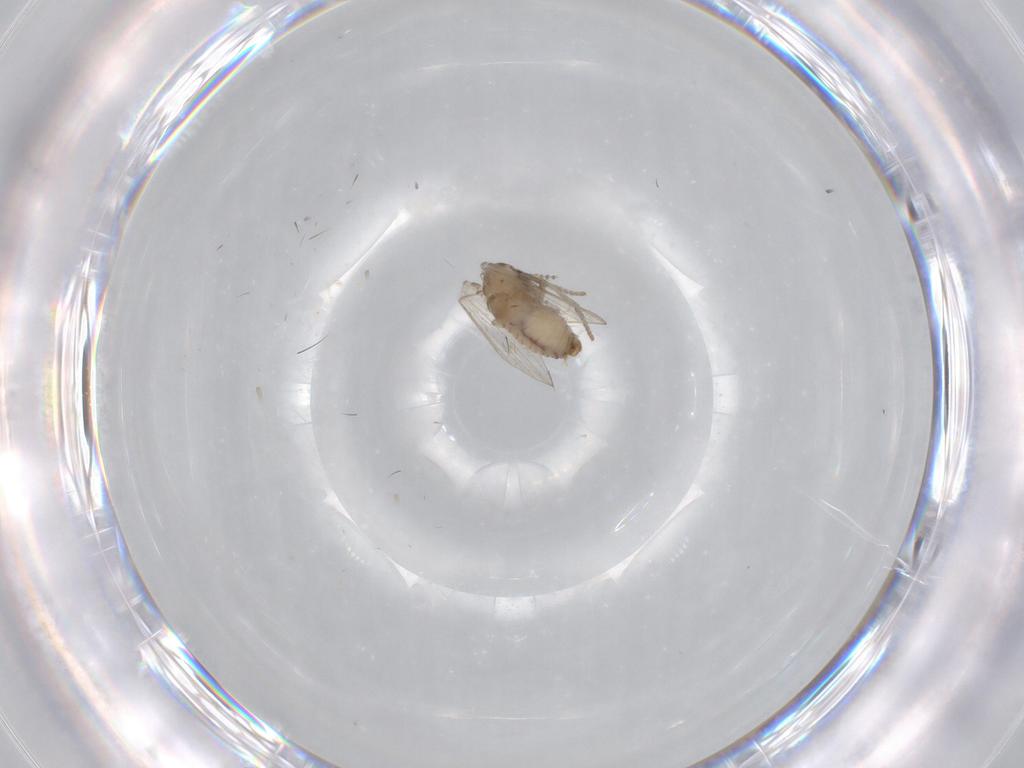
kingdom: Animalia
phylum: Arthropoda
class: Insecta
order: Diptera
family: Psychodidae
